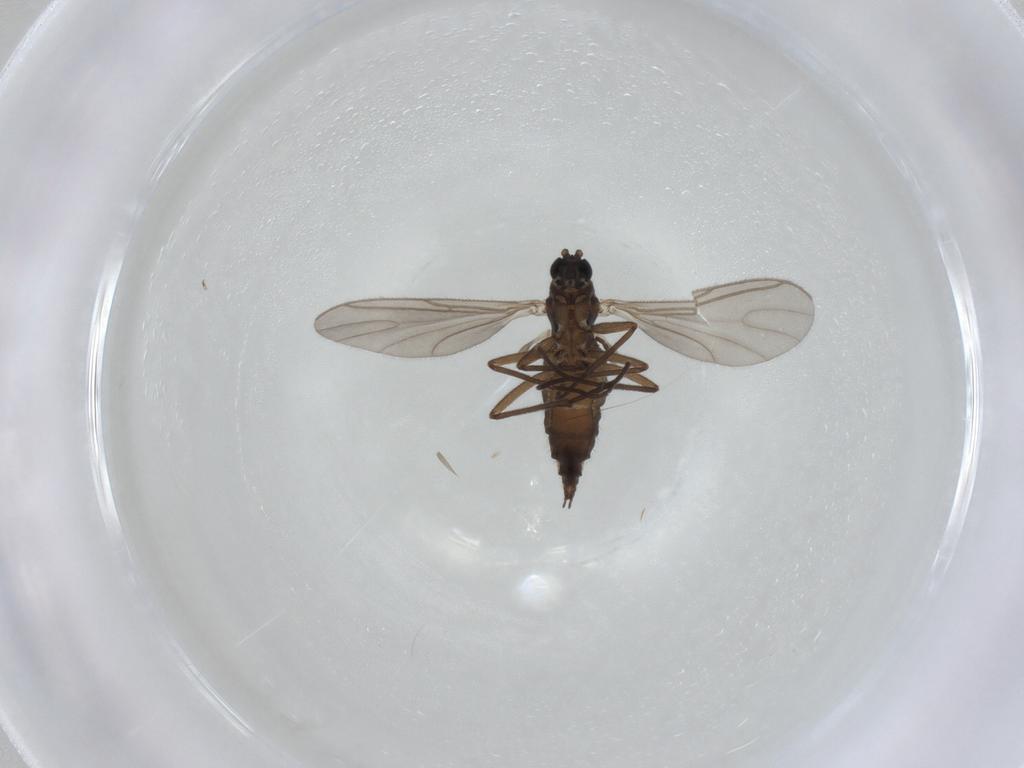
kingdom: Animalia
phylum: Arthropoda
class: Insecta
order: Diptera
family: Sciaridae
